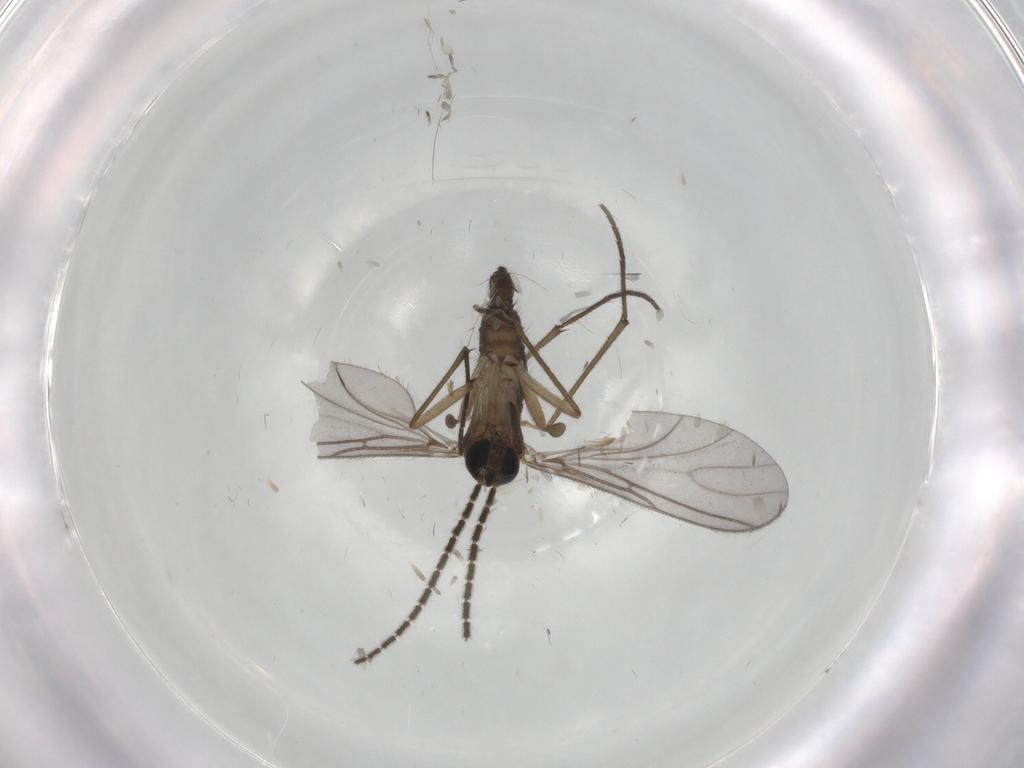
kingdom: Animalia
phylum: Arthropoda
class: Insecta
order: Diptera
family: Sciaridae
